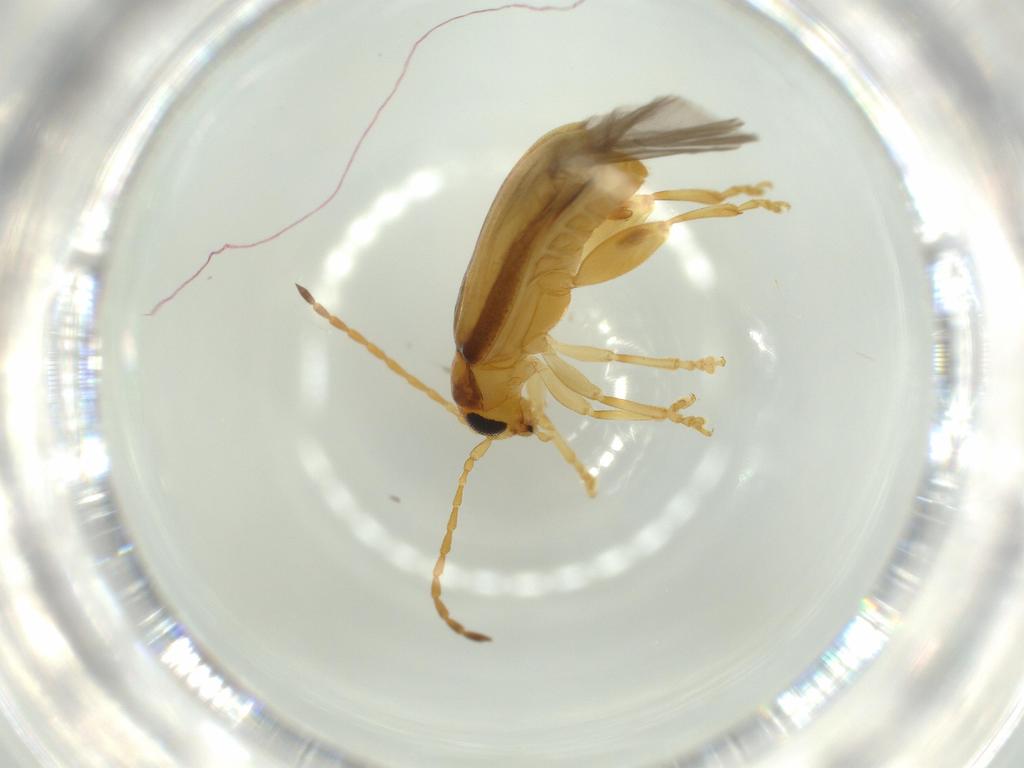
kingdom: Animalia
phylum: Arthropoda
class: Insecta
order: Coleoptera
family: Chrysomelidae
